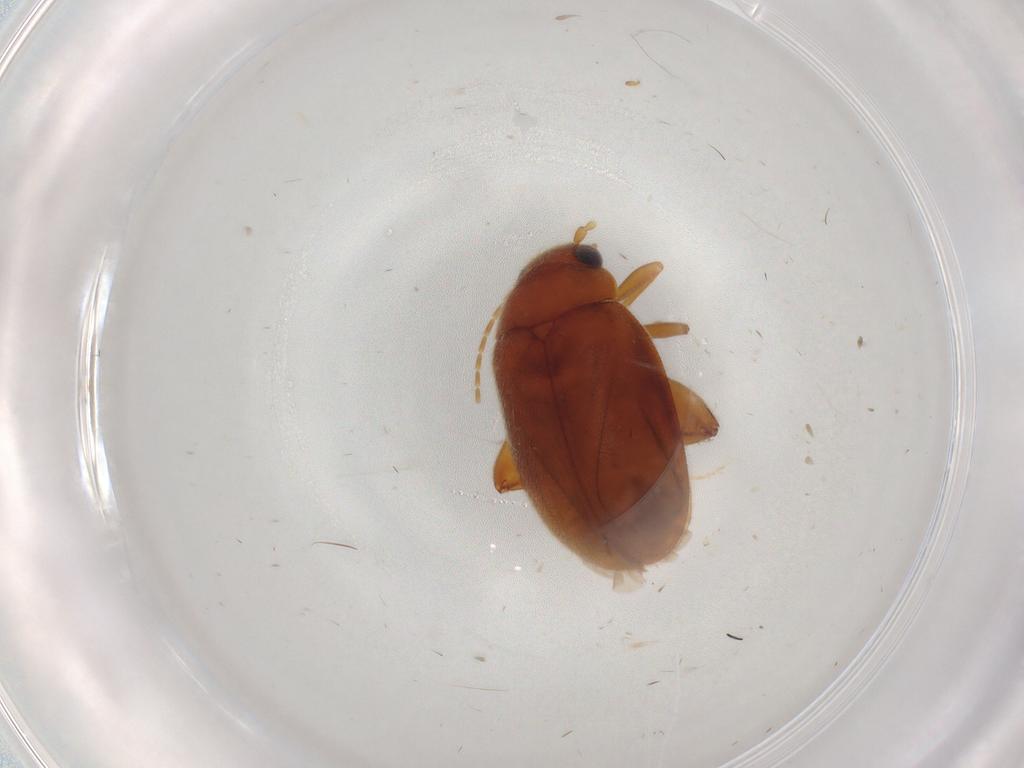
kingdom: Animalia
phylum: Arthropoda
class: Insecta
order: Coleoptera
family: Scirtidae
